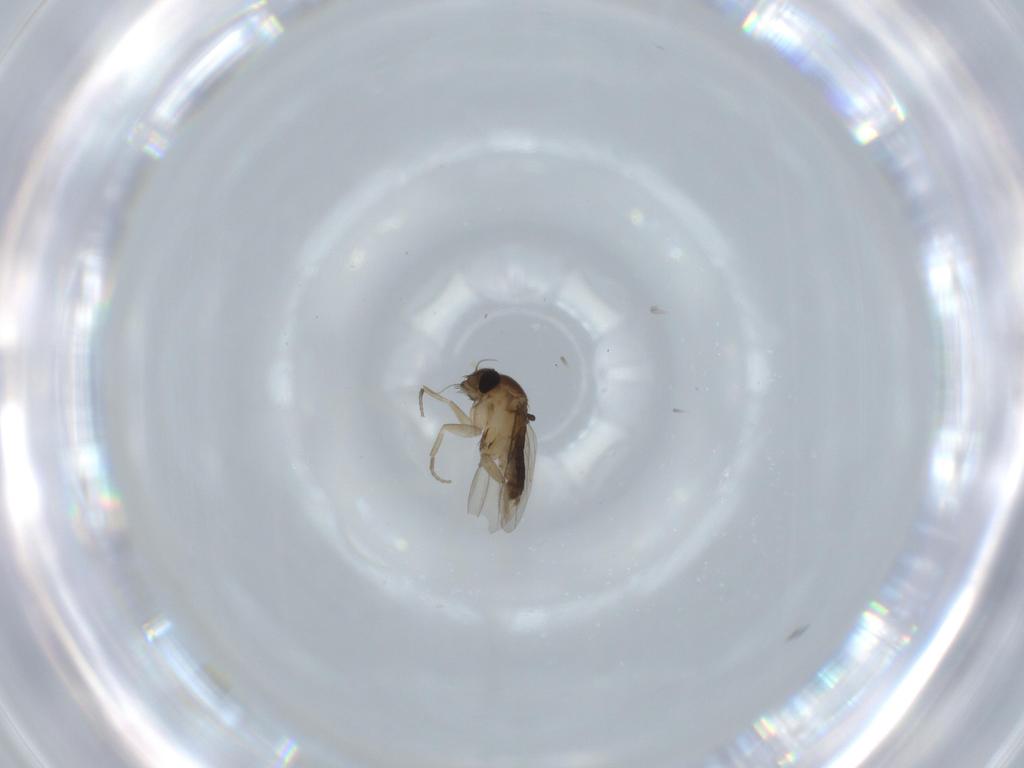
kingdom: Animalia
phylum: Arthropoda
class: Insecta
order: Diptera
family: Phoridae
